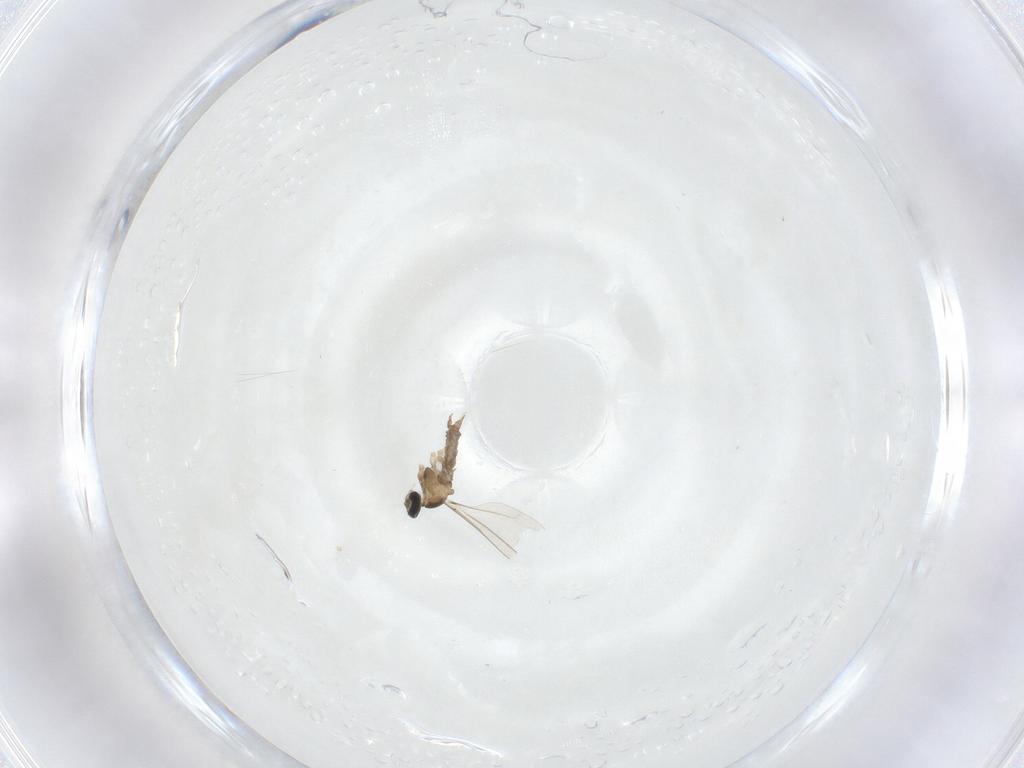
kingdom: Animalia
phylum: Arthropoda
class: Insecta
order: Diptera
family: Cecidomyiidae
